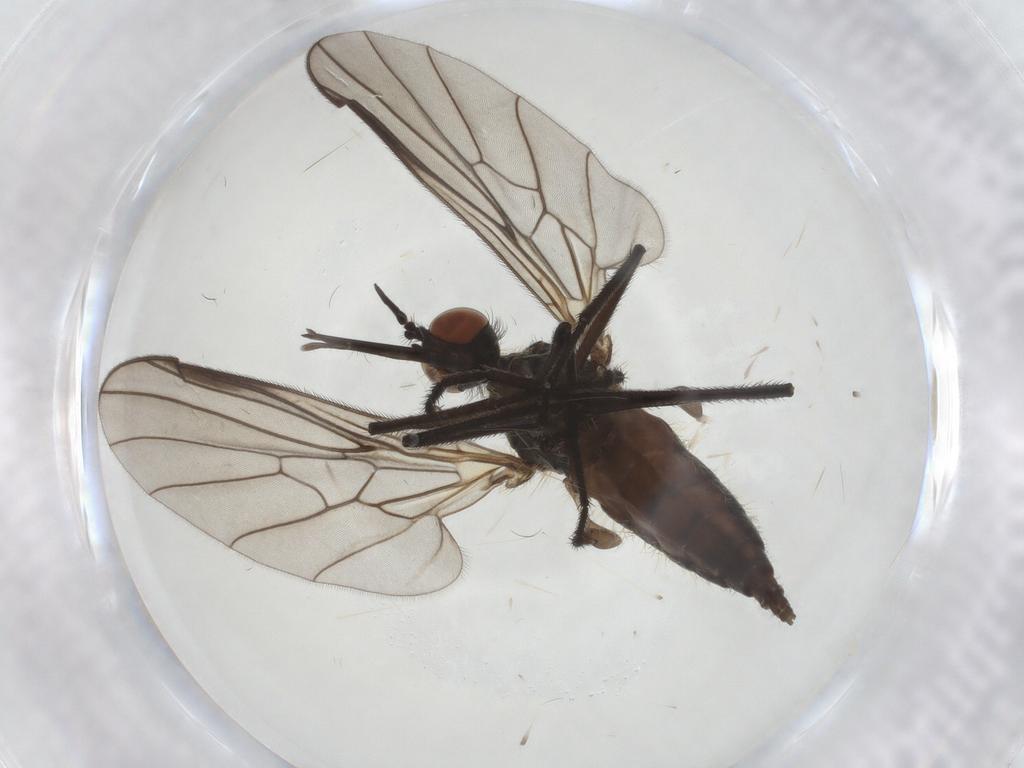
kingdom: Animalia
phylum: Arthropoda
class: Insecta
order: Diptera
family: Empididae
